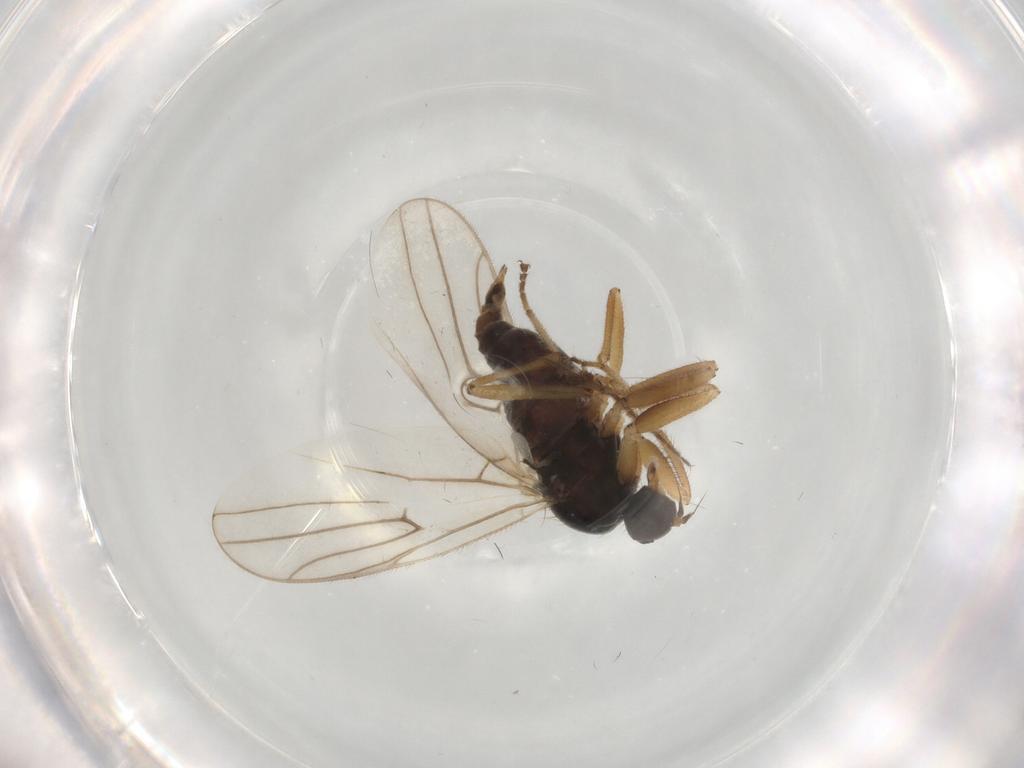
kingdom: Animalia
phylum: Arthropoda
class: Insecta
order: Diptera
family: Hybotidae
